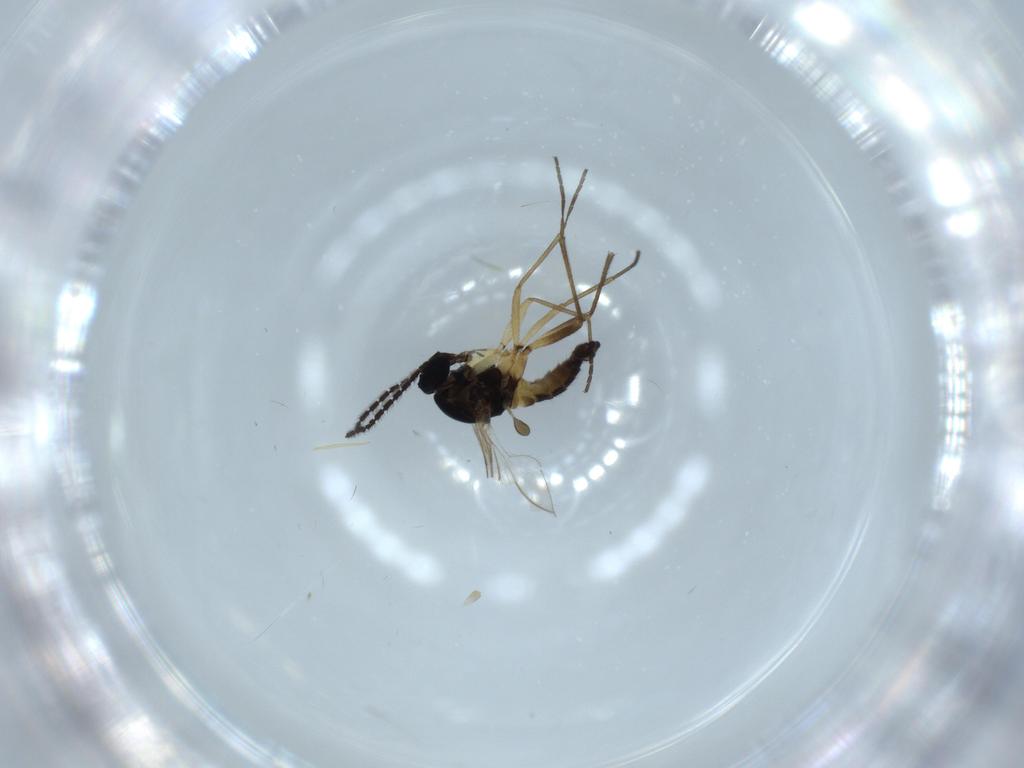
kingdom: Animalia
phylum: Arthropoda
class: Insecta
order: Diptera
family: Sciaridae
